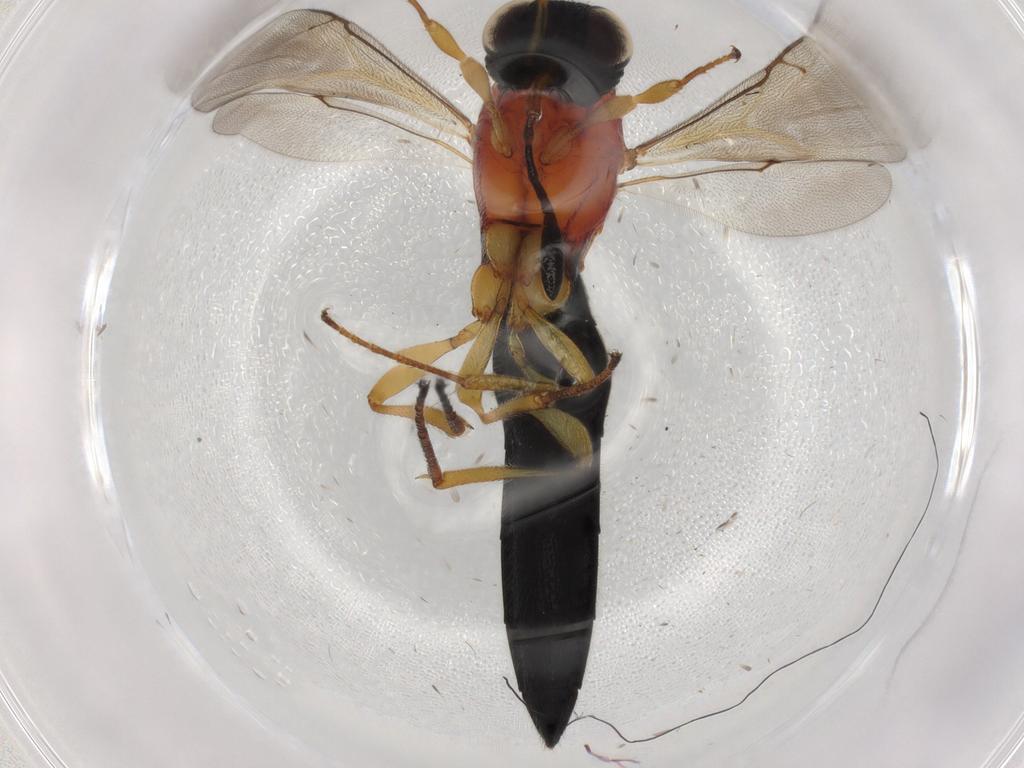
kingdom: Animalia
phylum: Arthropoda
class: Insecta
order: Hymenoptera
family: Scelionidae
